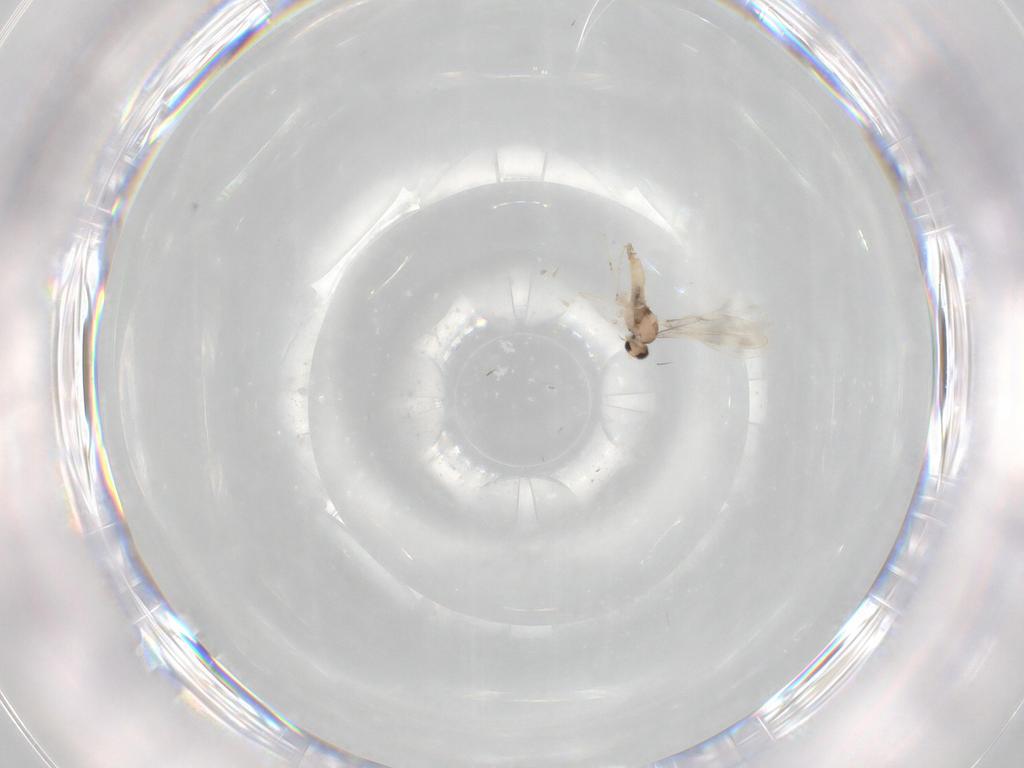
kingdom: Animalia
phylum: Arthropoda
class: Insecta
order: Diptera
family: Cecidomyiidae
